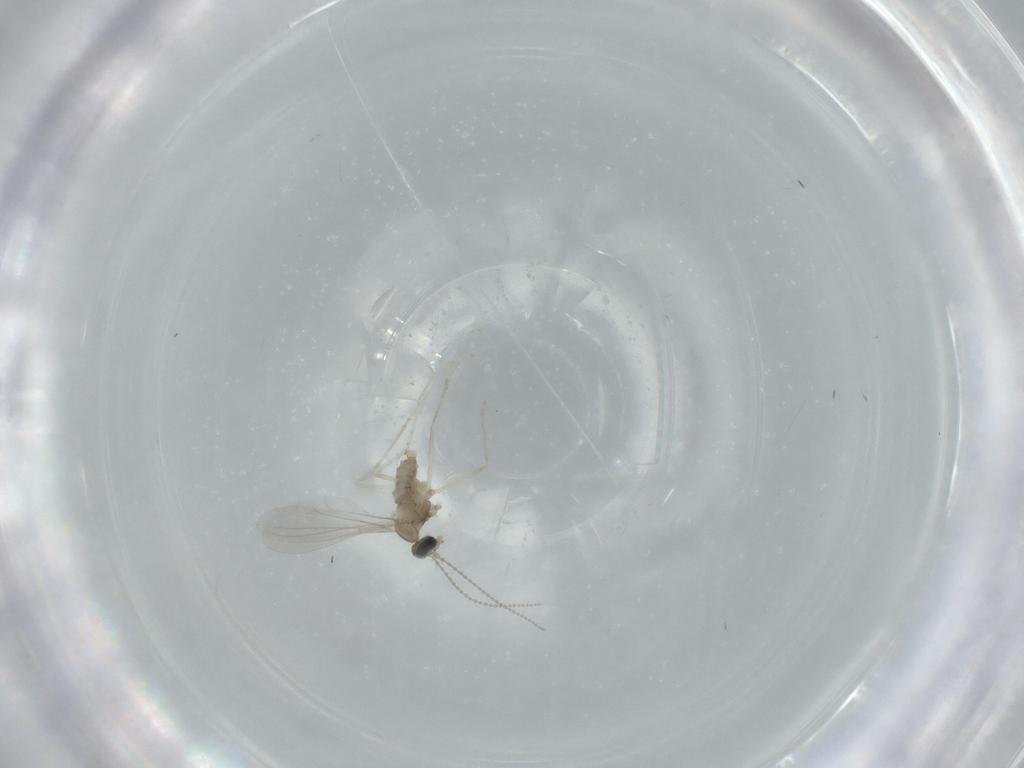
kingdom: Animalia
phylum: Arthropoda
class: Insecta
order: Diptera
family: Cecidomyiidae
